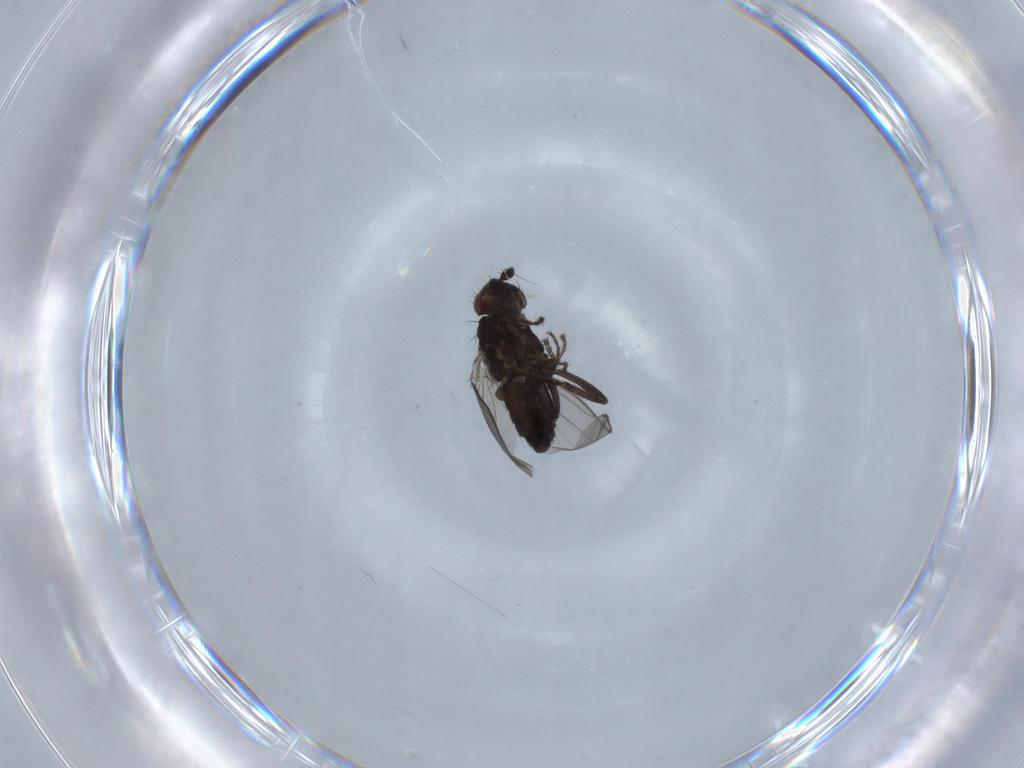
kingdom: Animalia
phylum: Arthropoda
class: Insecta
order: Diptera
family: Sphaeroceridae
